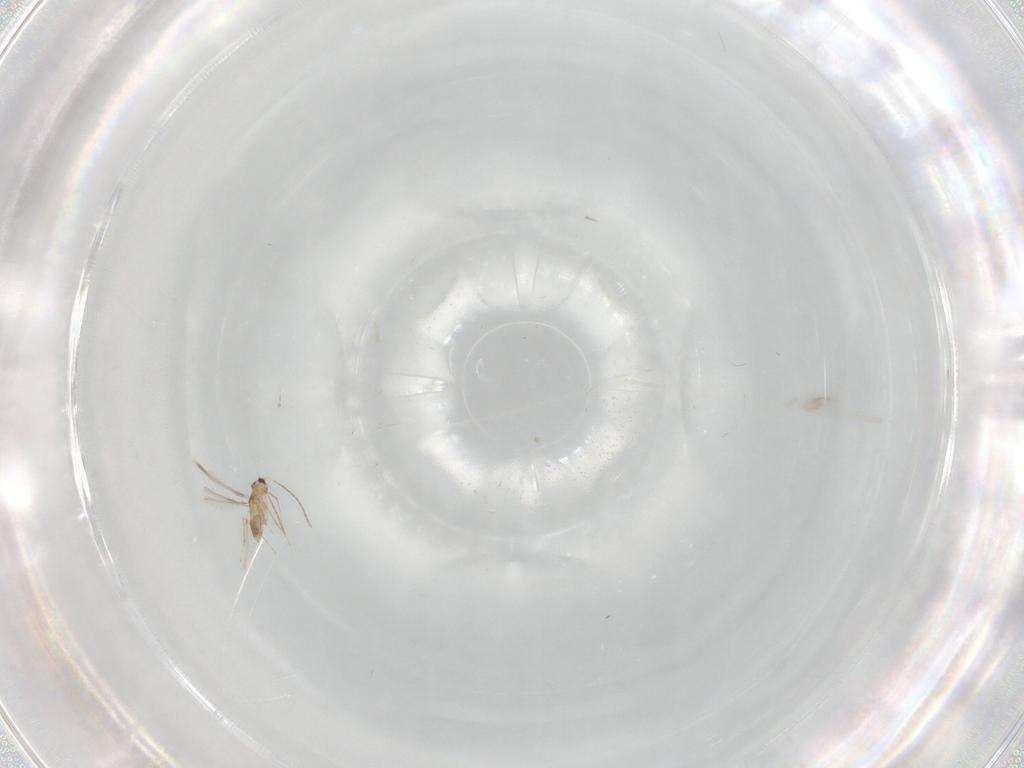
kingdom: Animalia
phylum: Arthropoda
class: Insecta
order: Hymenoptera
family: Mymaridae
